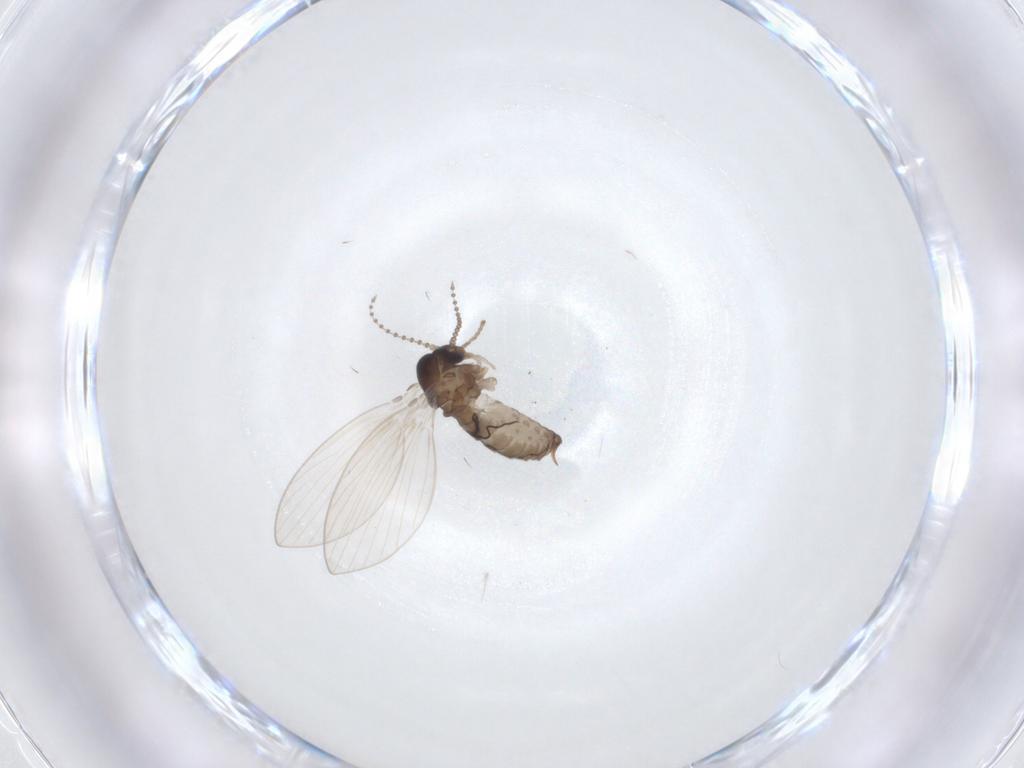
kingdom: Animalia
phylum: Arthropoda
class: Insecta
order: Diptera
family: Psychodidae
